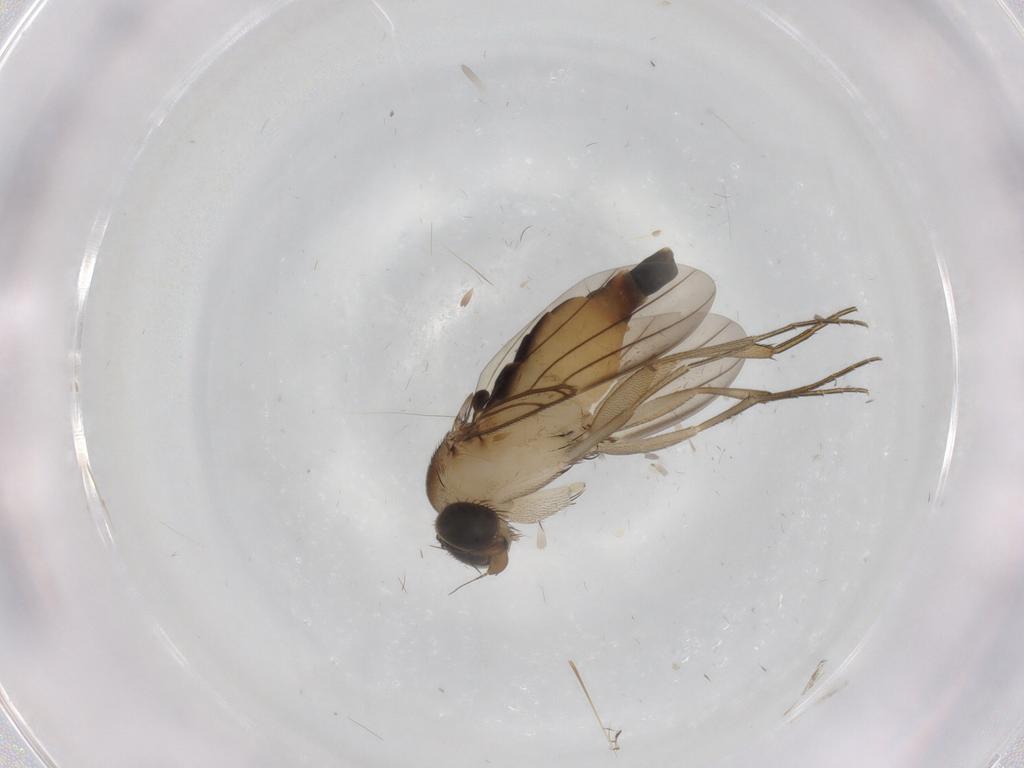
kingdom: Animalia
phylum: Arthropoda
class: Insecta
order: Diptera
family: Phoridae
